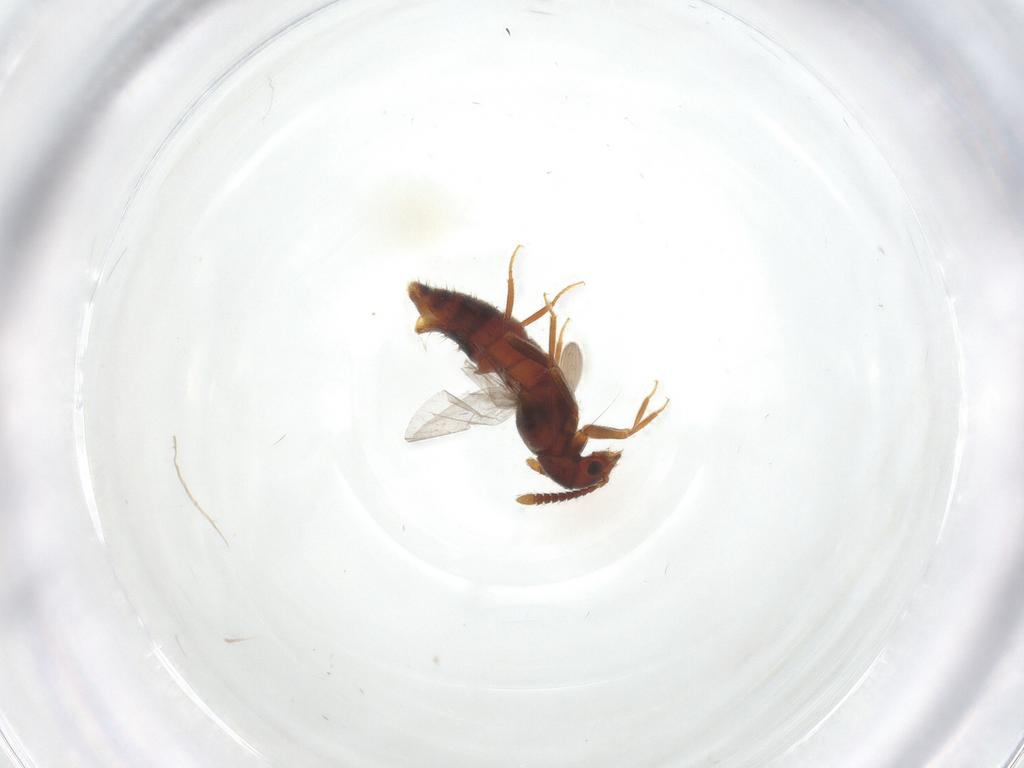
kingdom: Animalia
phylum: Arthropoda
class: Insecta
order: Coleoptera
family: Staphylinidae
